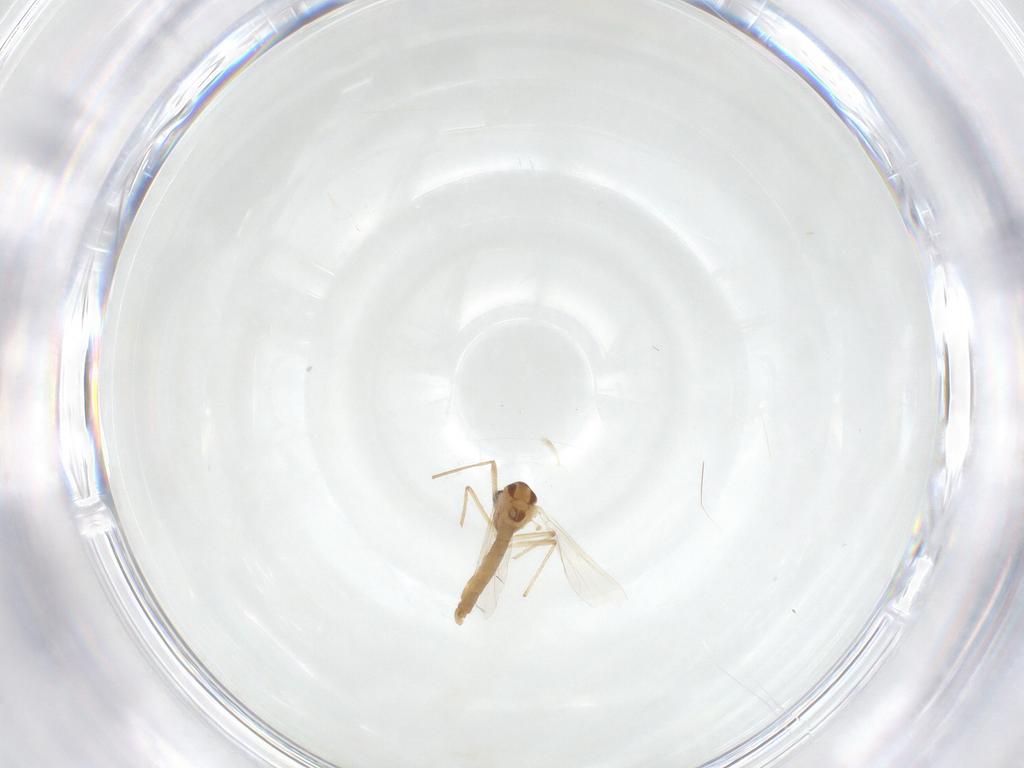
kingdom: Animalia
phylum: Arthropoda
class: Insecta
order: Diptera
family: Chironomidae
